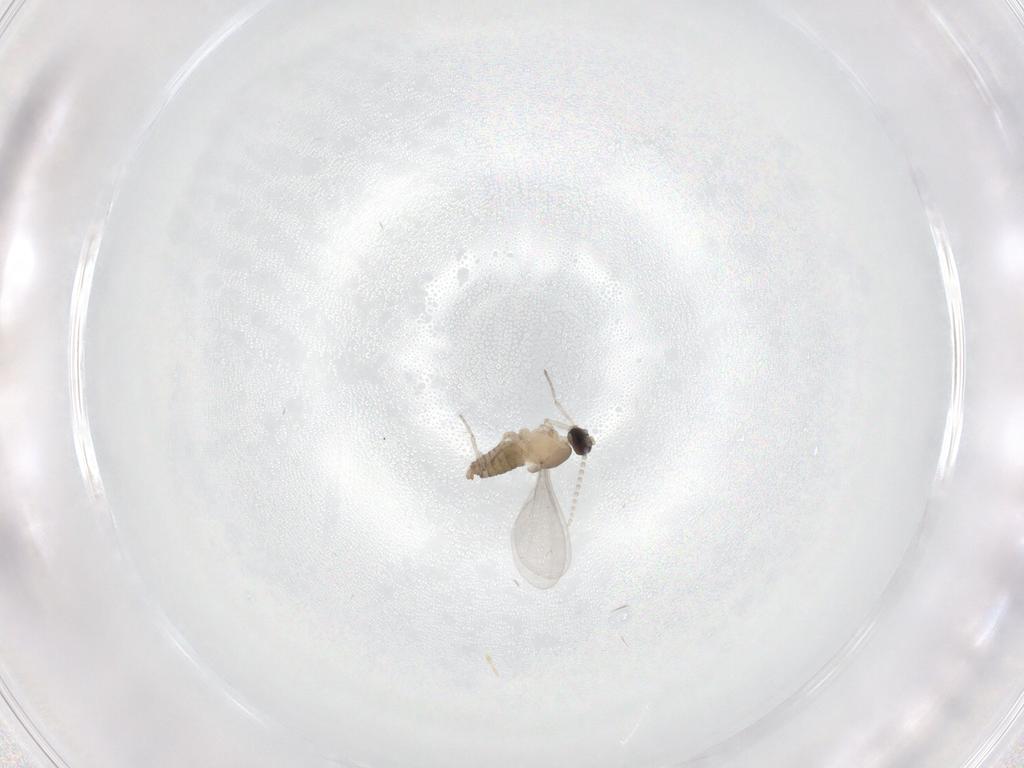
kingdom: Animalia
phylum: Arthropoda
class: Insecta
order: Diptera
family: Cecidomyiidae
